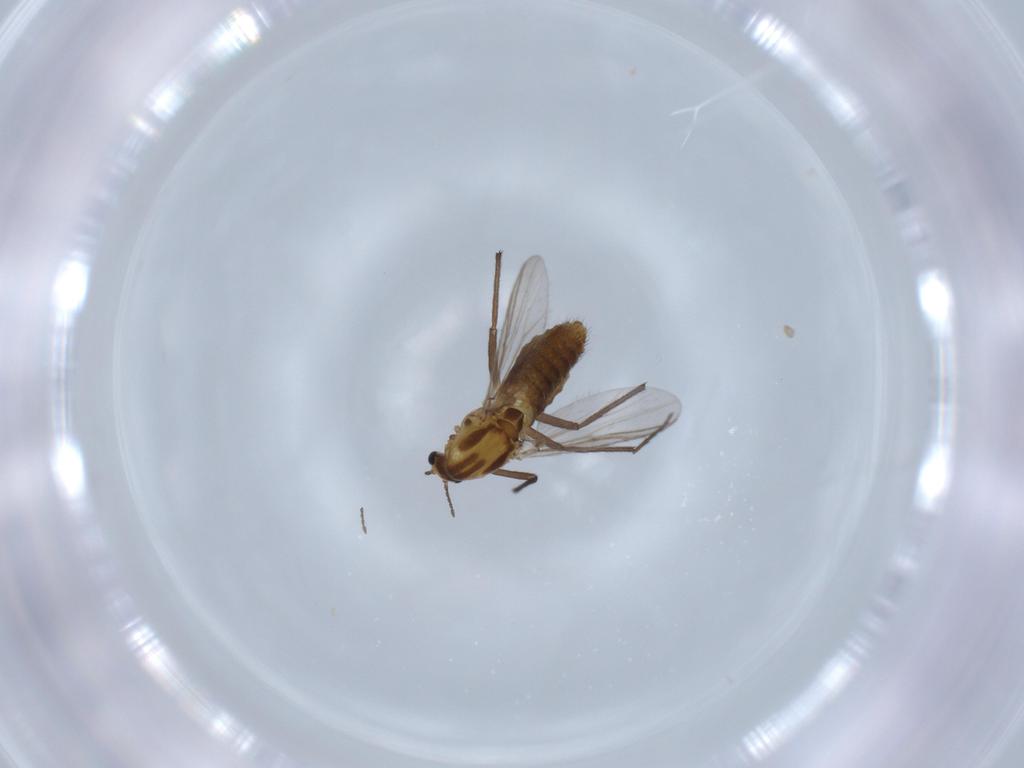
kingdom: Animalia
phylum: Arthropoda
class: Insecta
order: Diptera
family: Chironomidae
